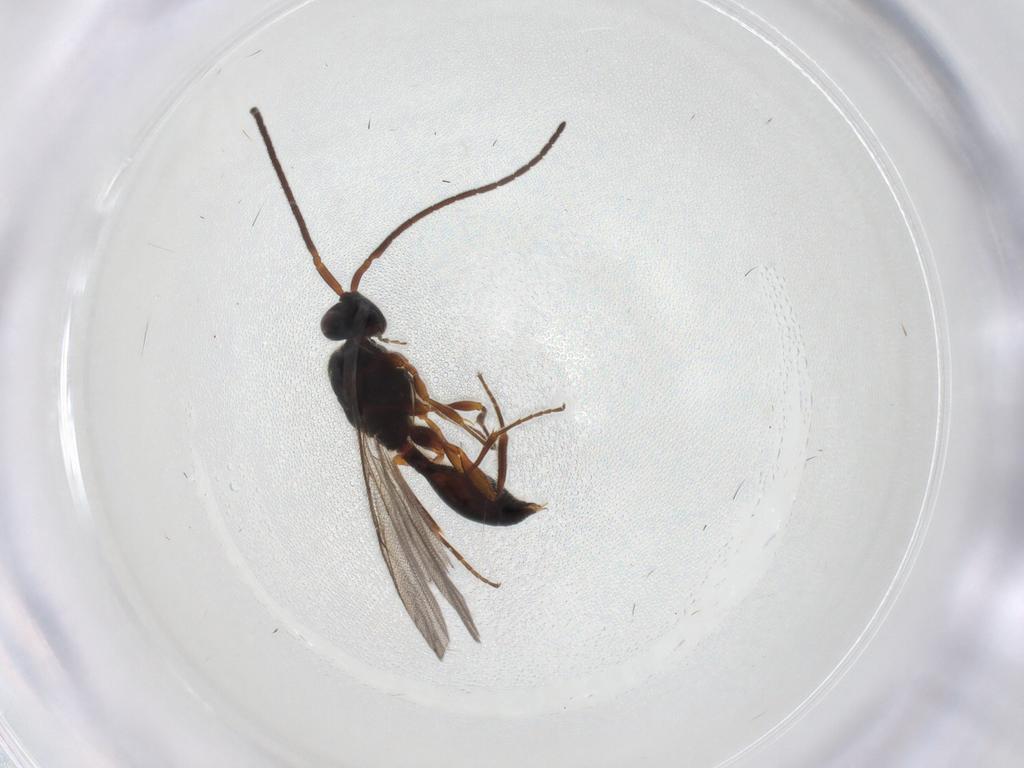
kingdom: Animalia
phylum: Arthropoda
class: Insecta
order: Hymenoptera
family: Diapriidae
